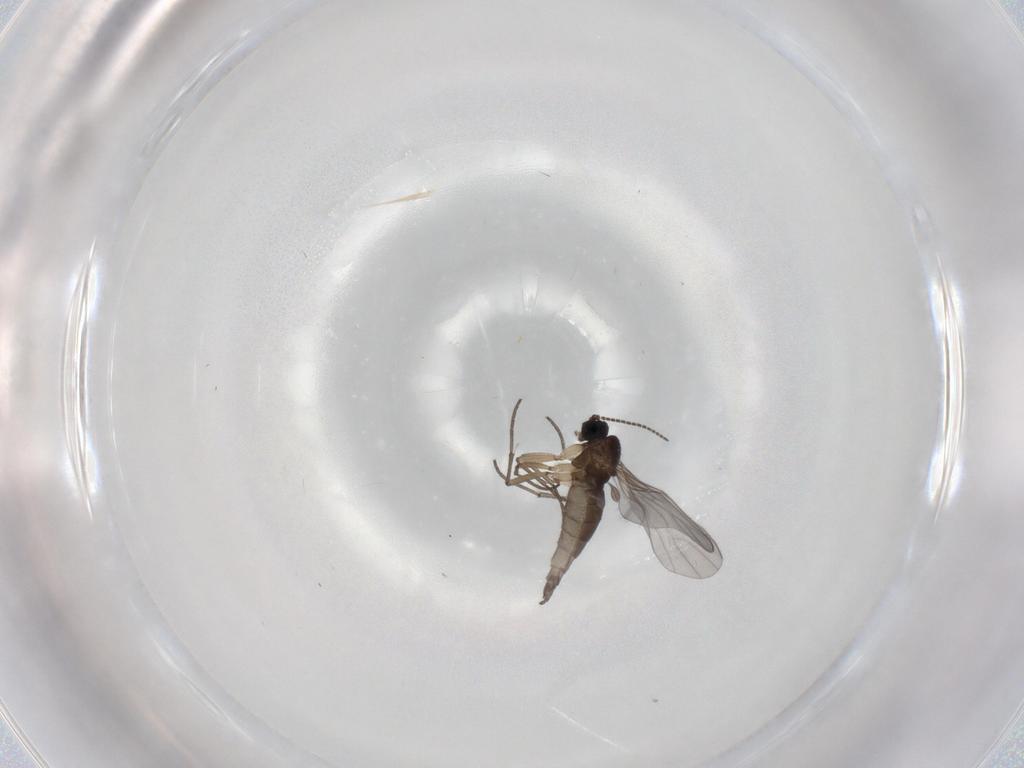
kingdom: Animalia
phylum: Arthropoda
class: Insecta
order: Diptera
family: Sciaridae
